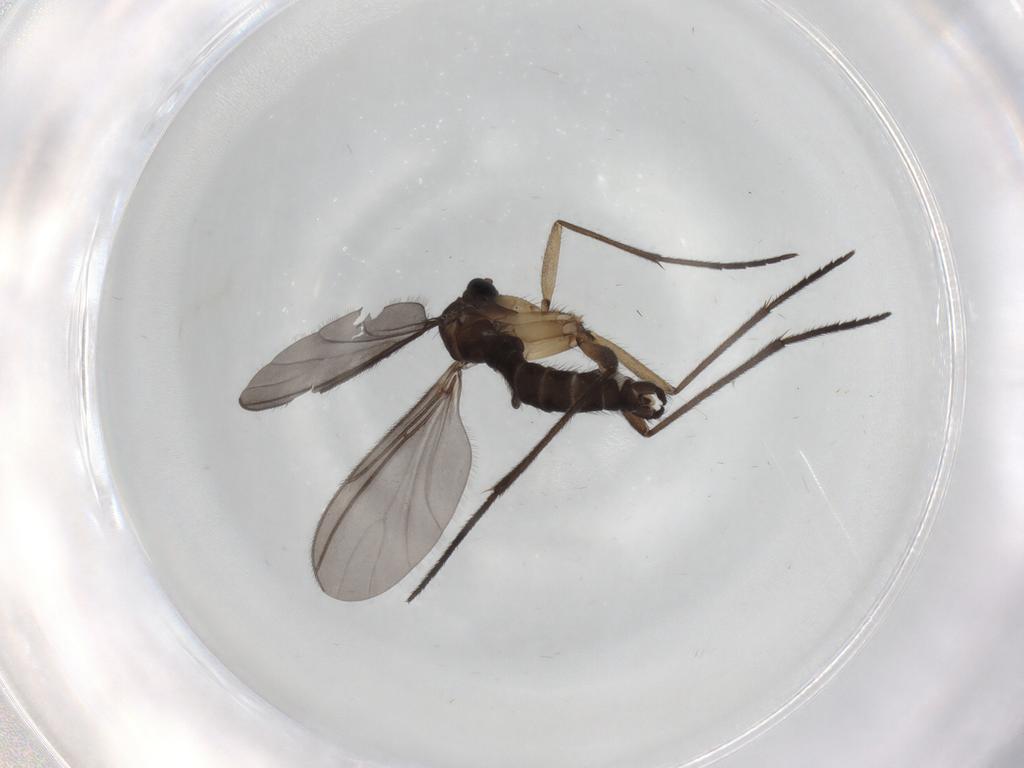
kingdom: Animalia
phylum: Arthropoda
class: Insecta
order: Diptera
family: Sciaridae
